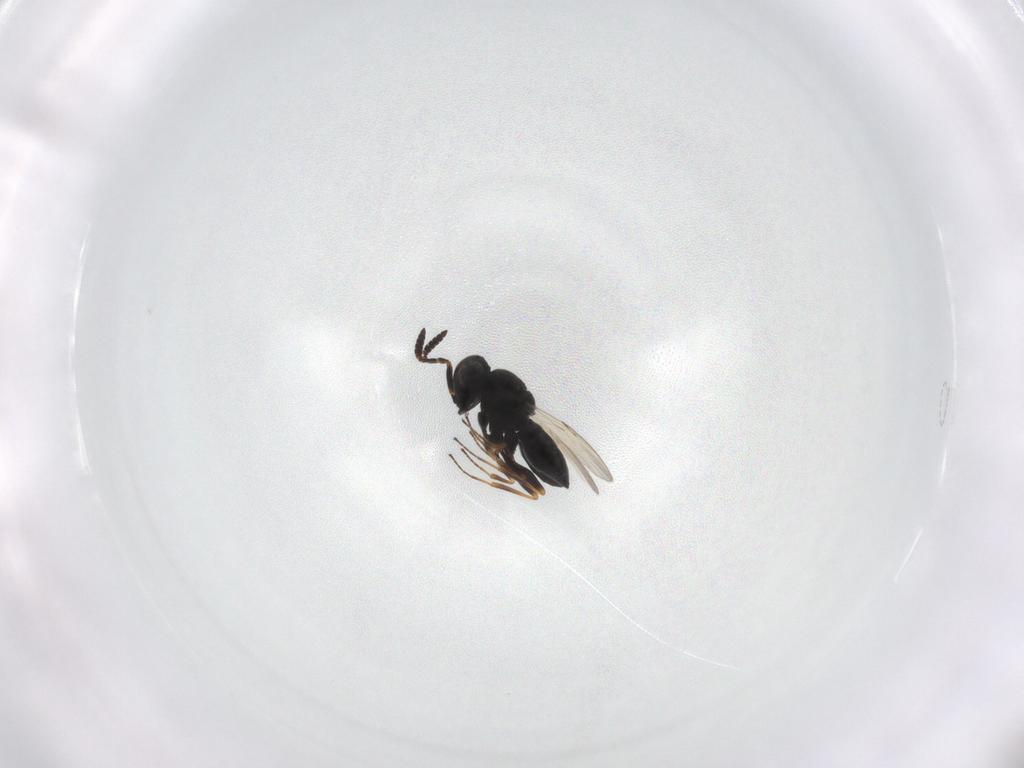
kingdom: Animalia
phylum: Arthropoda
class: Insecta
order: Hymenoptera
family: Scelionidae
